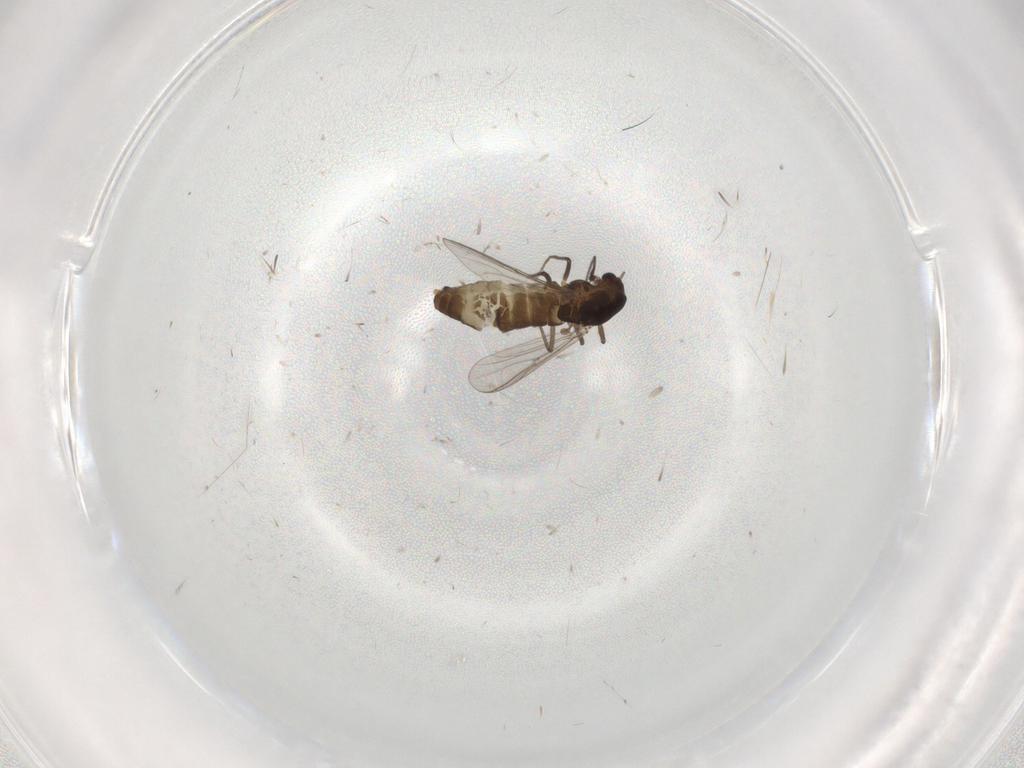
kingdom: Animalia
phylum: Arthropoda
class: Insecta
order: Diptera
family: Chironomidae
